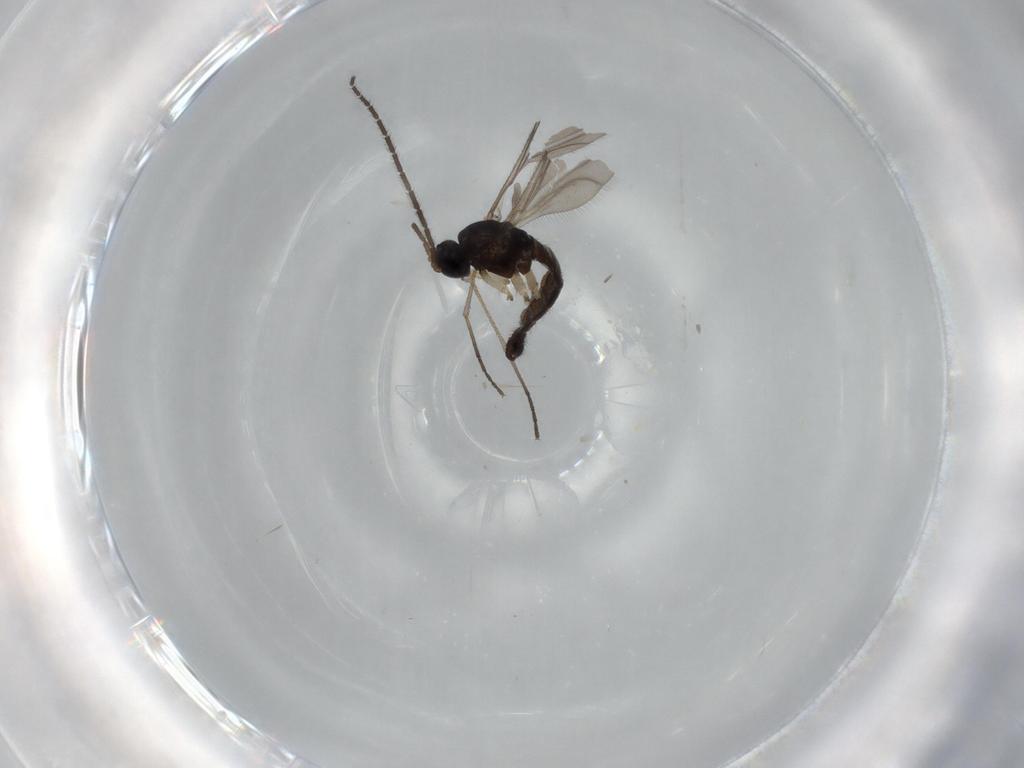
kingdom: Animalia
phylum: Arthropoda
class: Insecta
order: Diptera
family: Sciaridae
